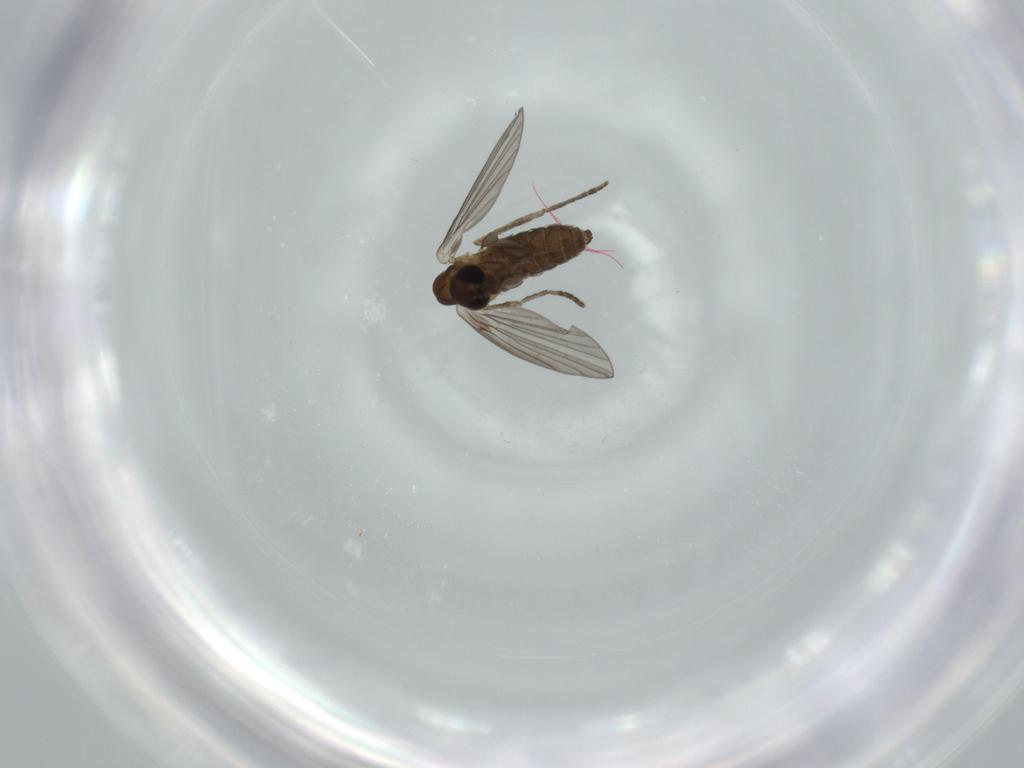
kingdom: Animalia
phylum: Arthropoda
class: Insecta
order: Diptera
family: Psychodidae
